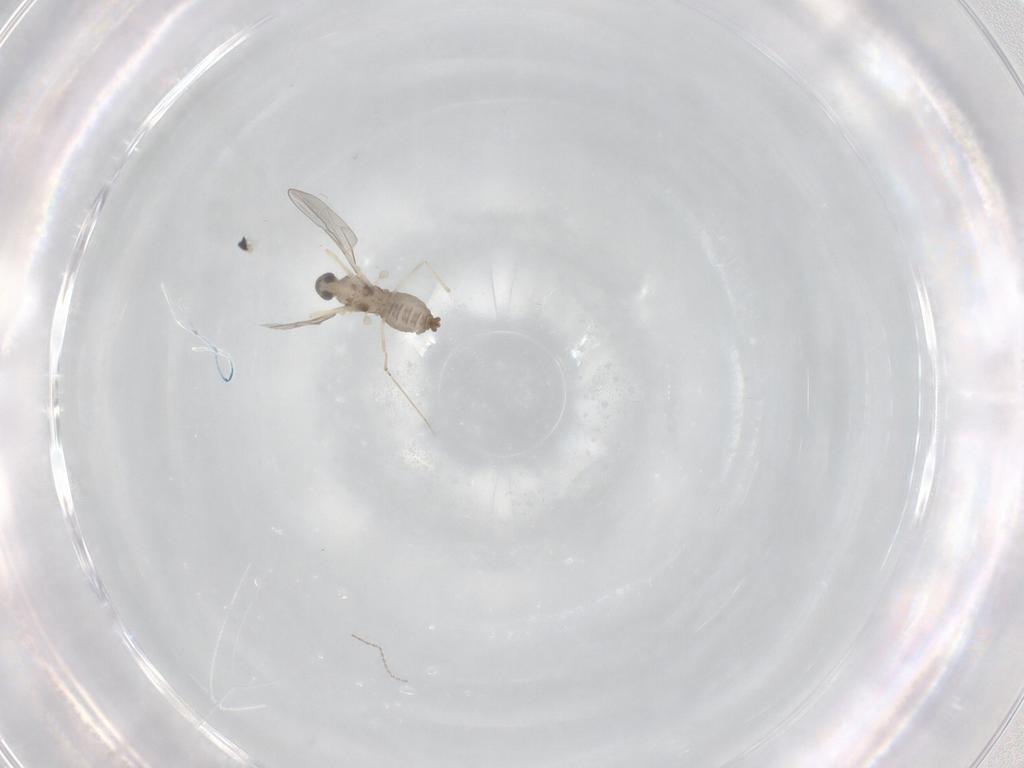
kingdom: Animalia
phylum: Arthropoda
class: Insecta
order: Diptera
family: Cecidomyiidae
